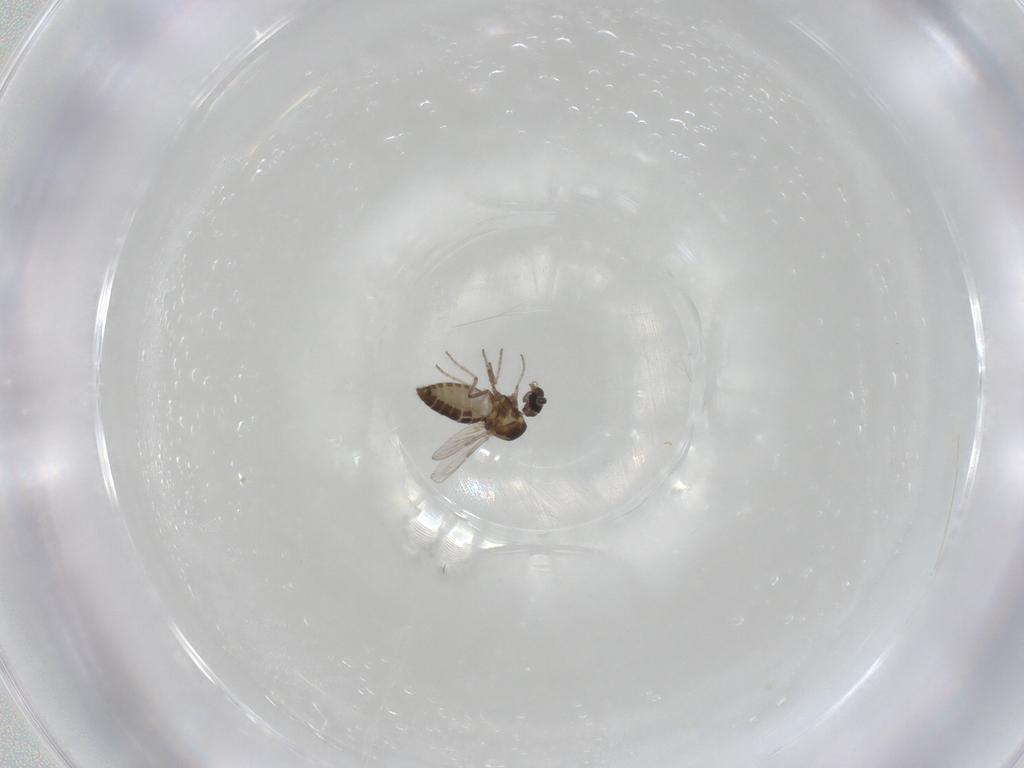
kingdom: Animalia
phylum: Arthropoda
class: Insecta
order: Diptera
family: Ceratopogonidae
